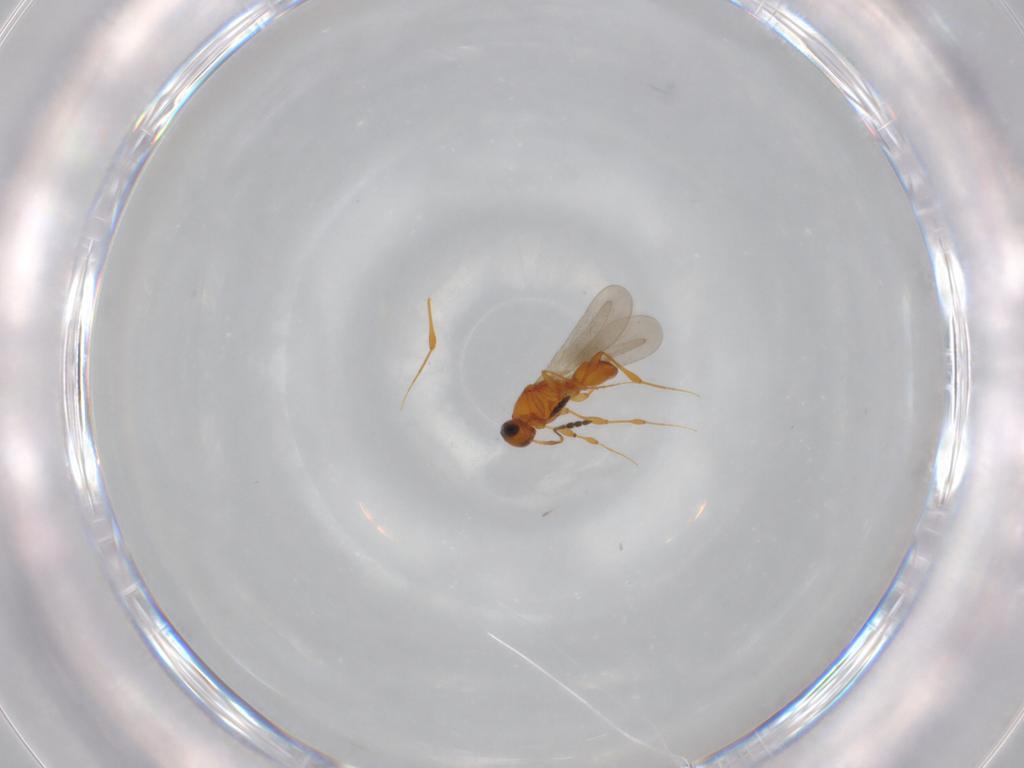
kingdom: Animalia
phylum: Arthropoda
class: Insecta
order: Hymenoptera
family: Platygastridae
